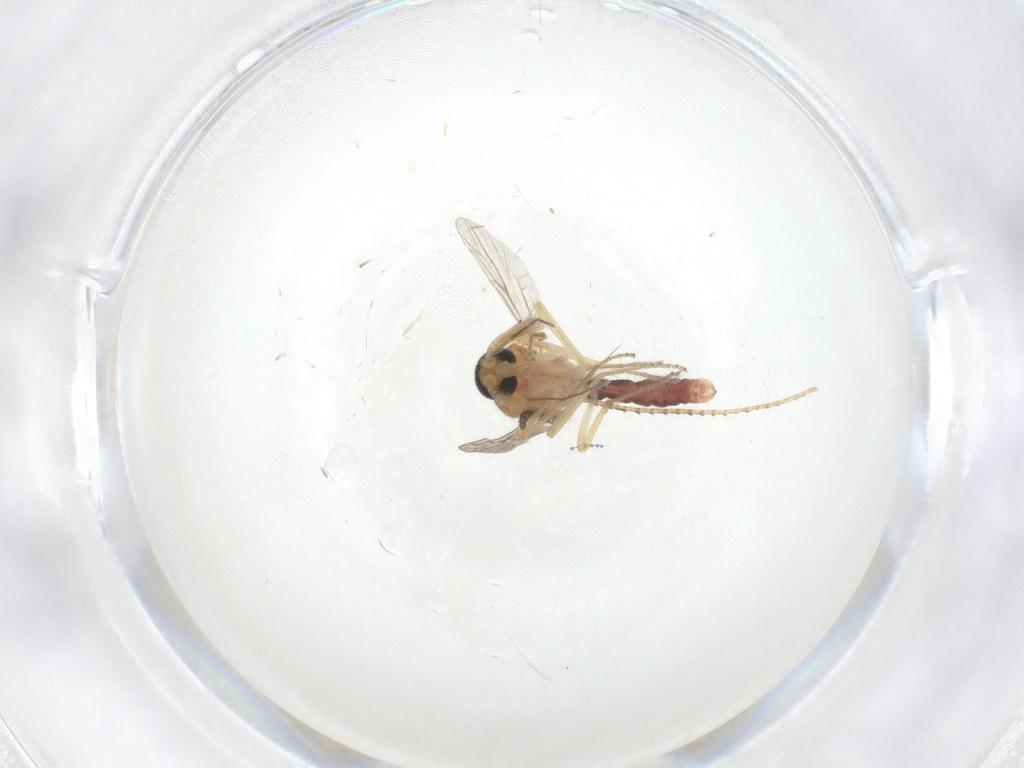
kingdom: Animalia
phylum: Arthropoda
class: Insecta
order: Diptera
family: Ceratopogonidae
